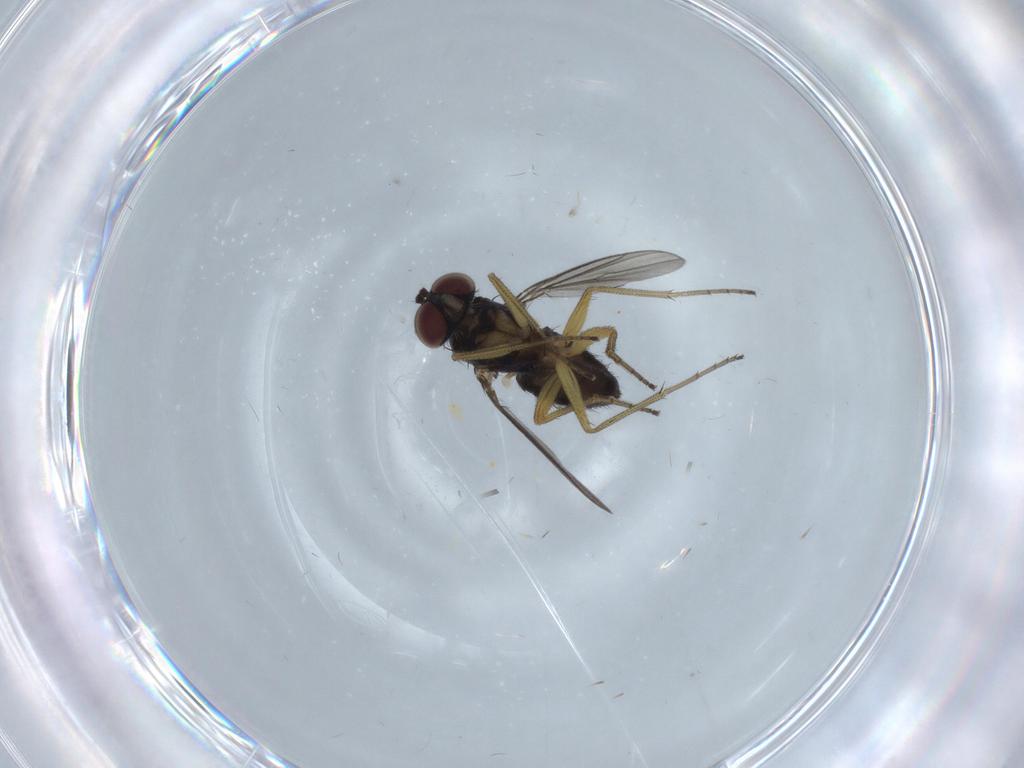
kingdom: Animalia
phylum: Arthropoda
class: Insecta
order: Diptera
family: Dolichopodidae
